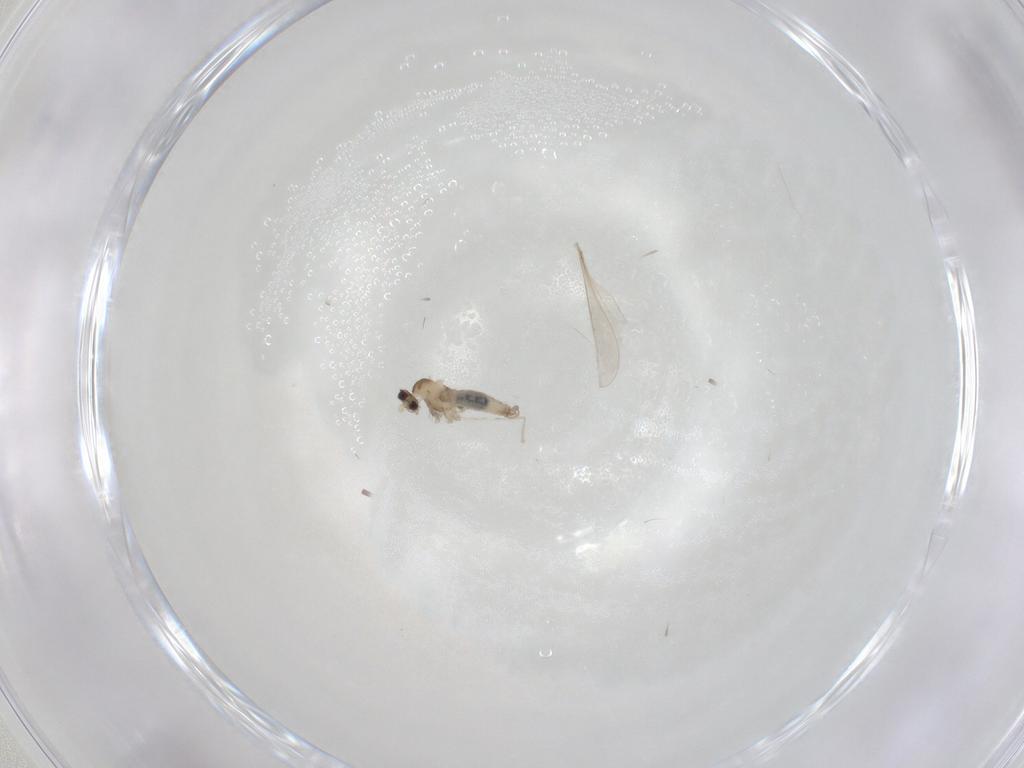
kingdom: Animalia
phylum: Arthropoda
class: Insecta
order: Diptera
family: Cecidomyiidae
